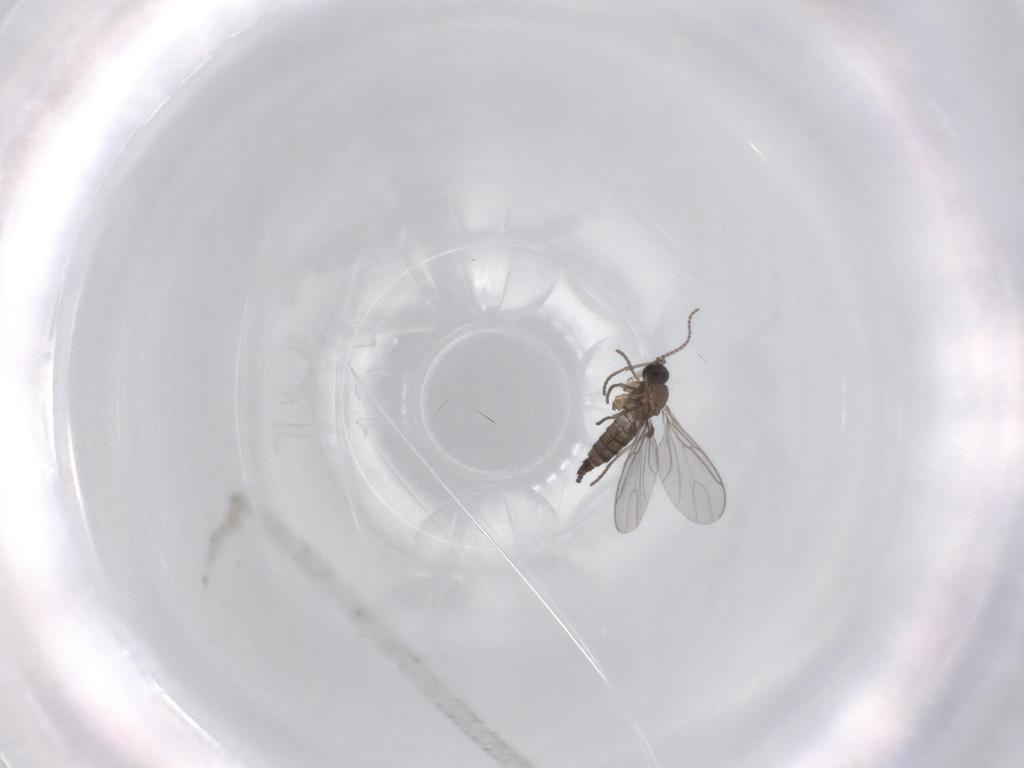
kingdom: Animalia
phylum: Arthropoda
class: Insecta
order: Diptera
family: Sciaridae
